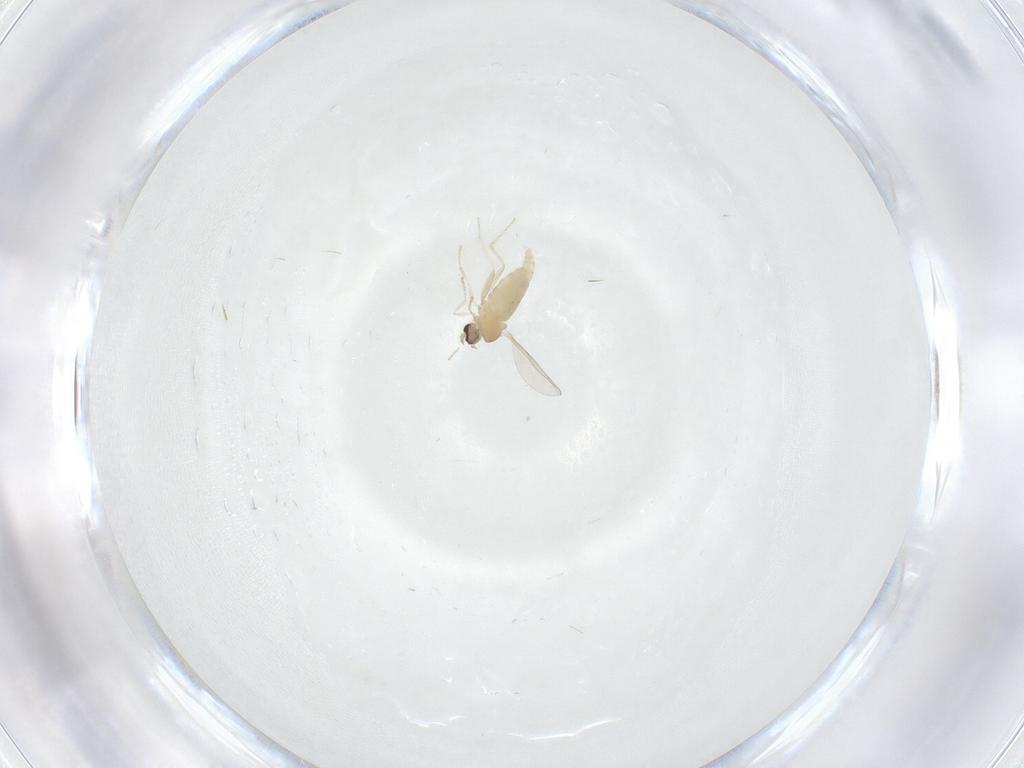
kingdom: Animalia
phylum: Arthropoda
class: Insecta
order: Diptera
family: Cecidomyiidae
